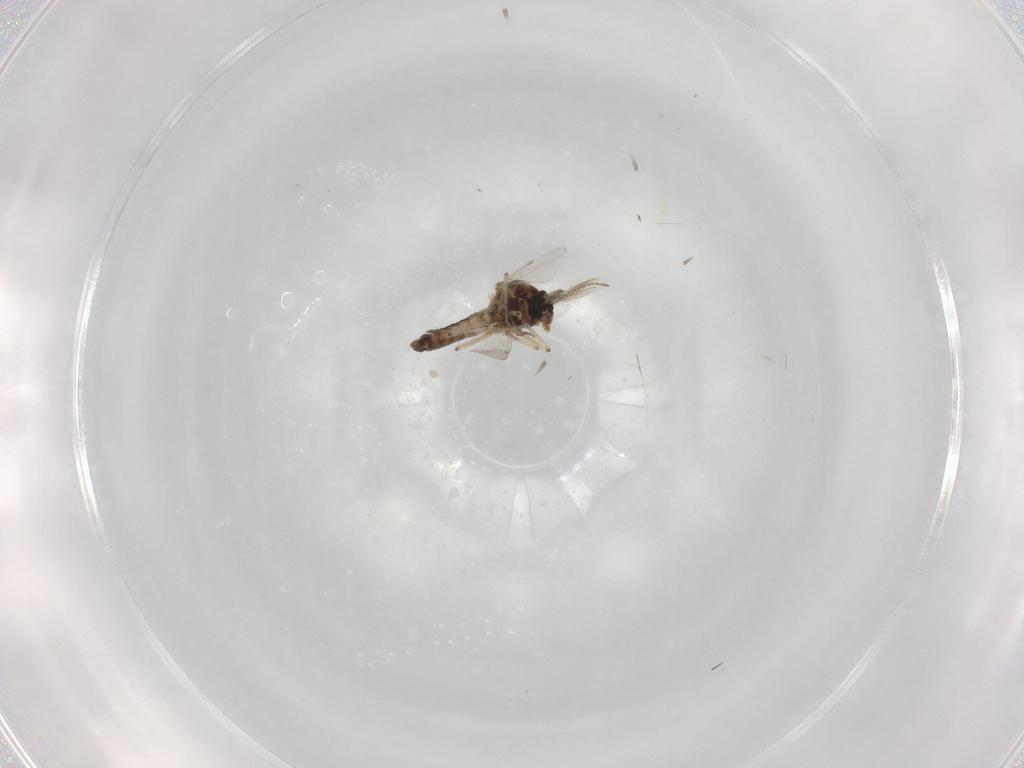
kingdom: Animalia
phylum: Arthropoda
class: Insecta
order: Diptera
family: Ceratopogonidae
